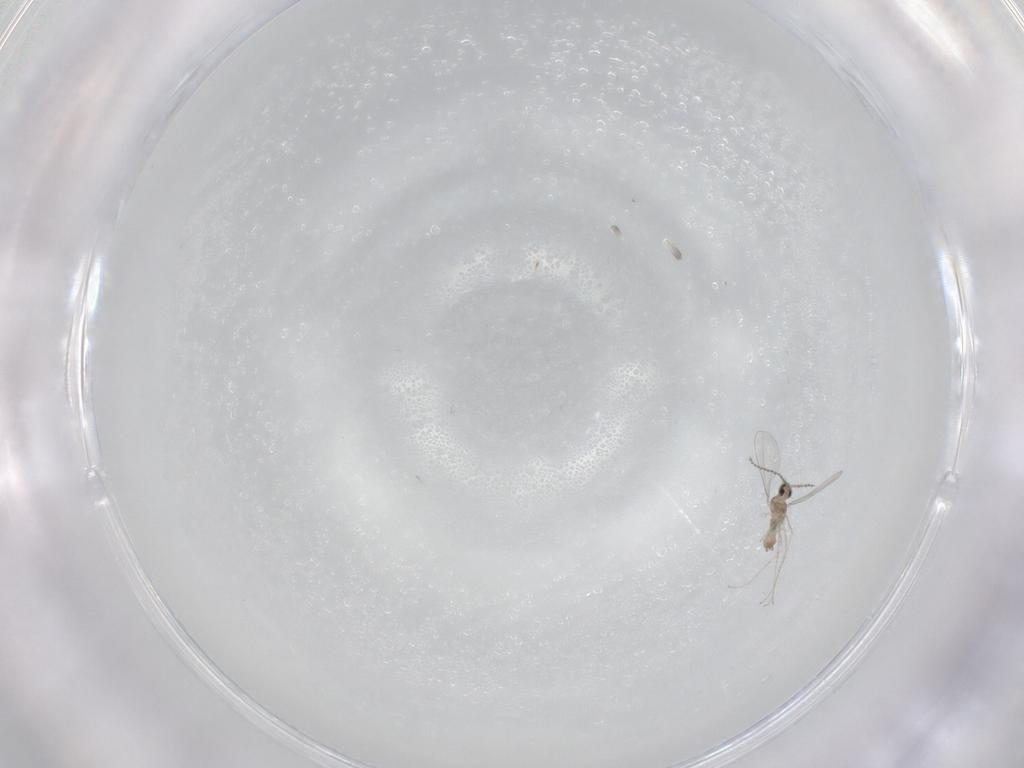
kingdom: Animalia
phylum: Arthropoda
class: Insecta
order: Diptera
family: Cecidomyiidae
